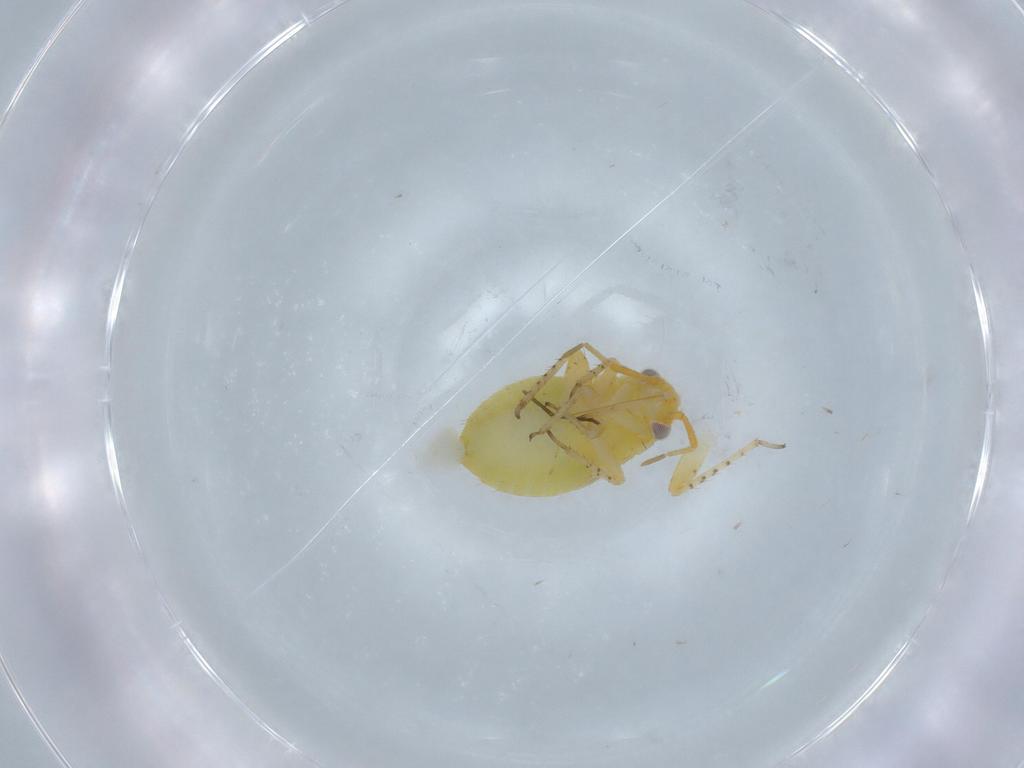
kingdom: Animalia
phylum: Arthropoda
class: Insecta
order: Hemiptera
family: Miridae
